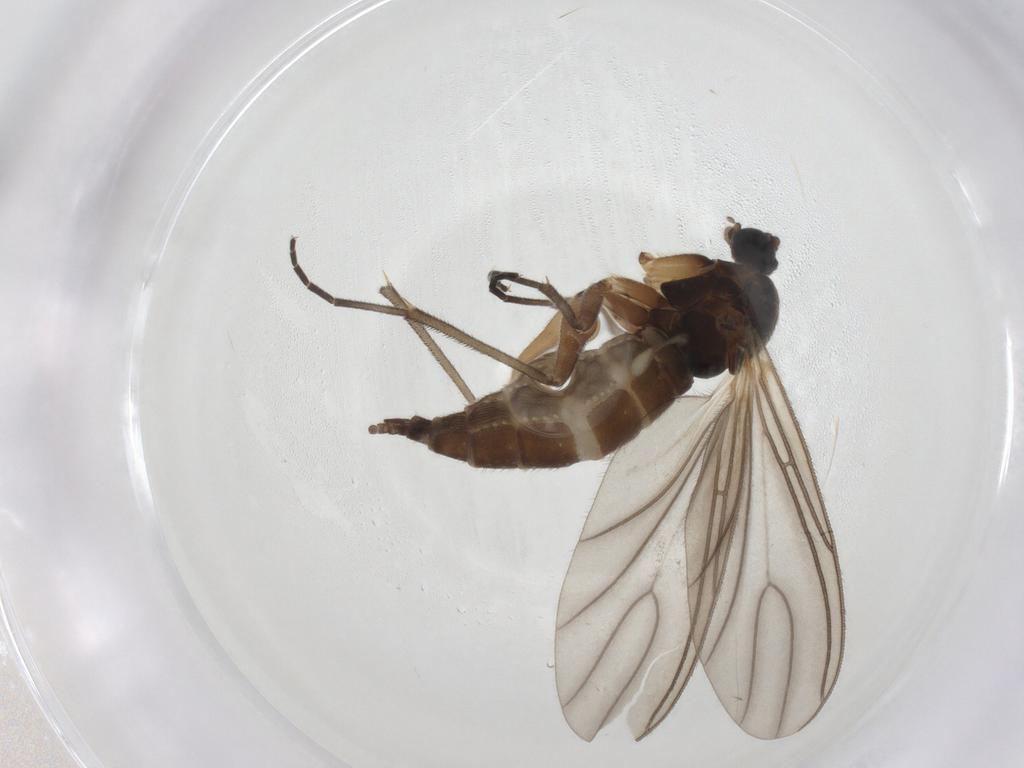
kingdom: Animalia
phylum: Arthropoda
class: Insecta
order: Diptera
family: Sciaridae
